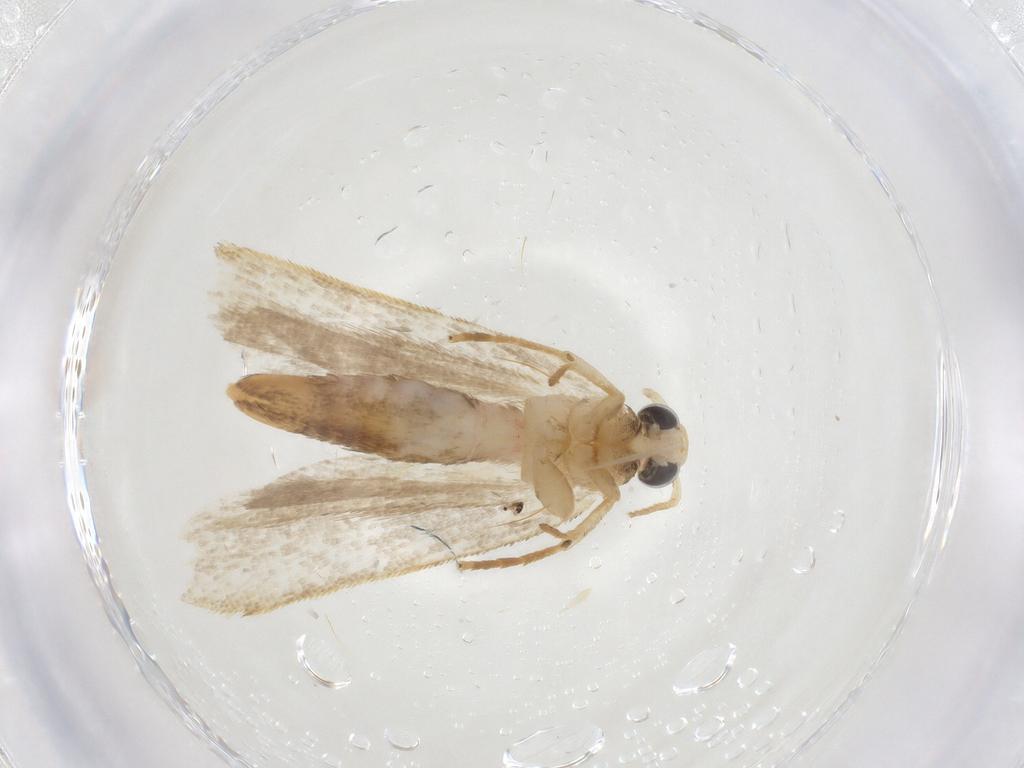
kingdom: Animalia
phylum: Arthropoda
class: Insecta
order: Lepidoptera
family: Gelechiidae
